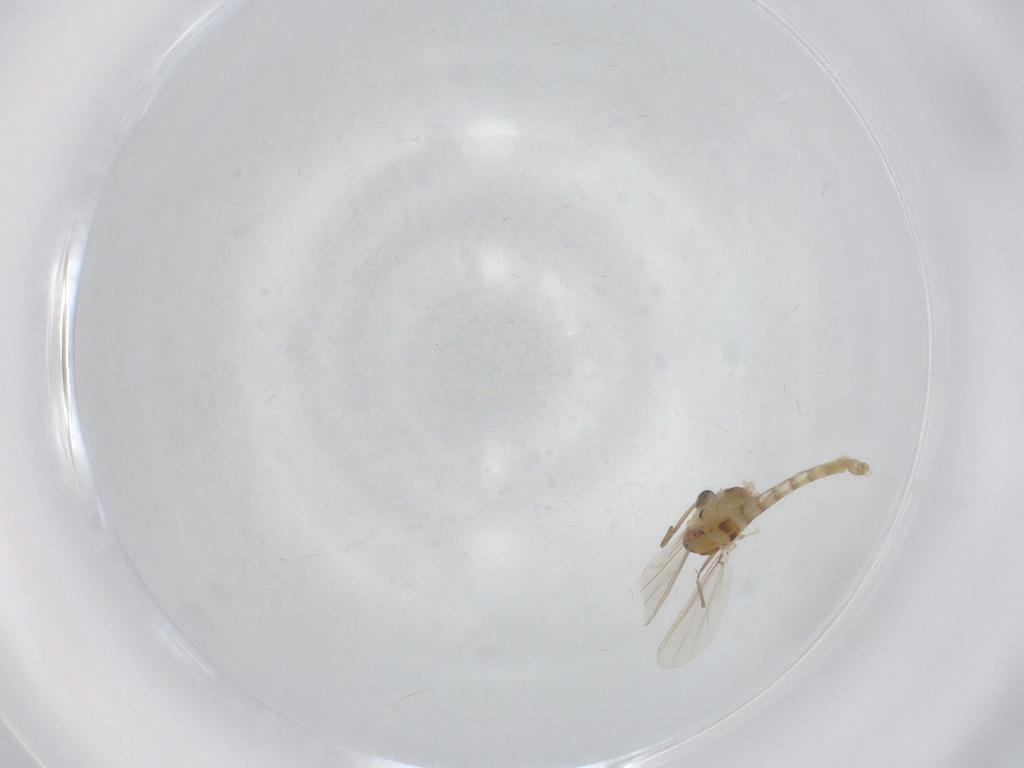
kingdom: Animalia
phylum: Arthropoda
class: Insecta
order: Diptera
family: Chironomidae
